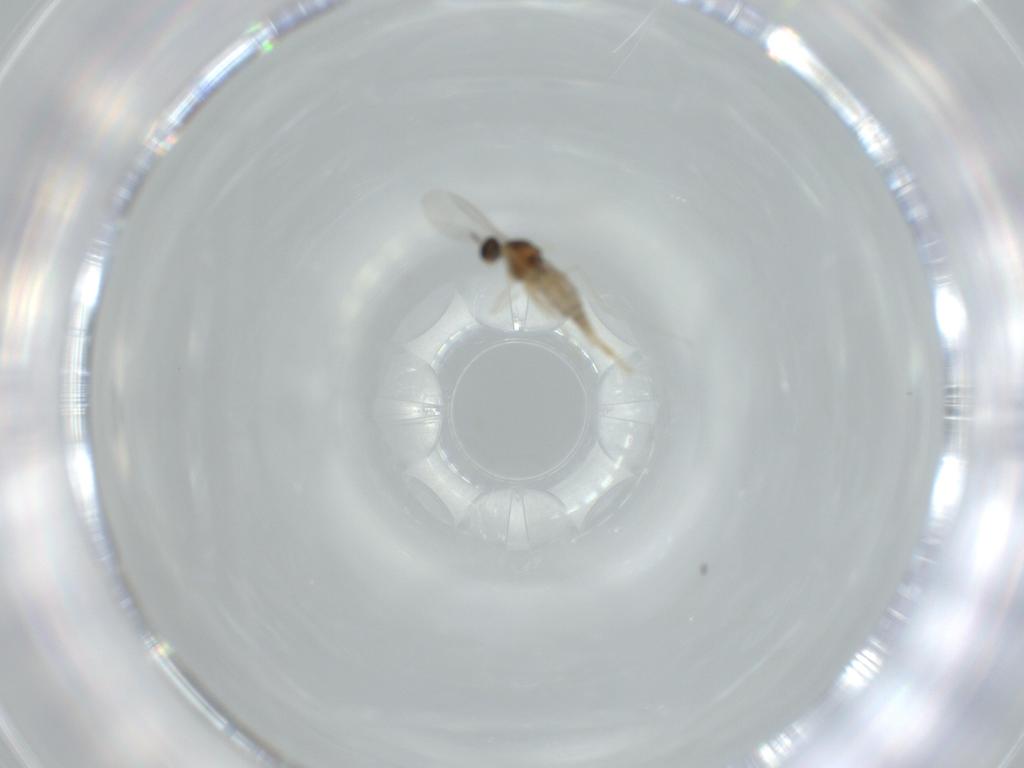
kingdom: Animalia
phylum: Arthropoda
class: Insecta
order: Diptera
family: Cecidomyiidae
